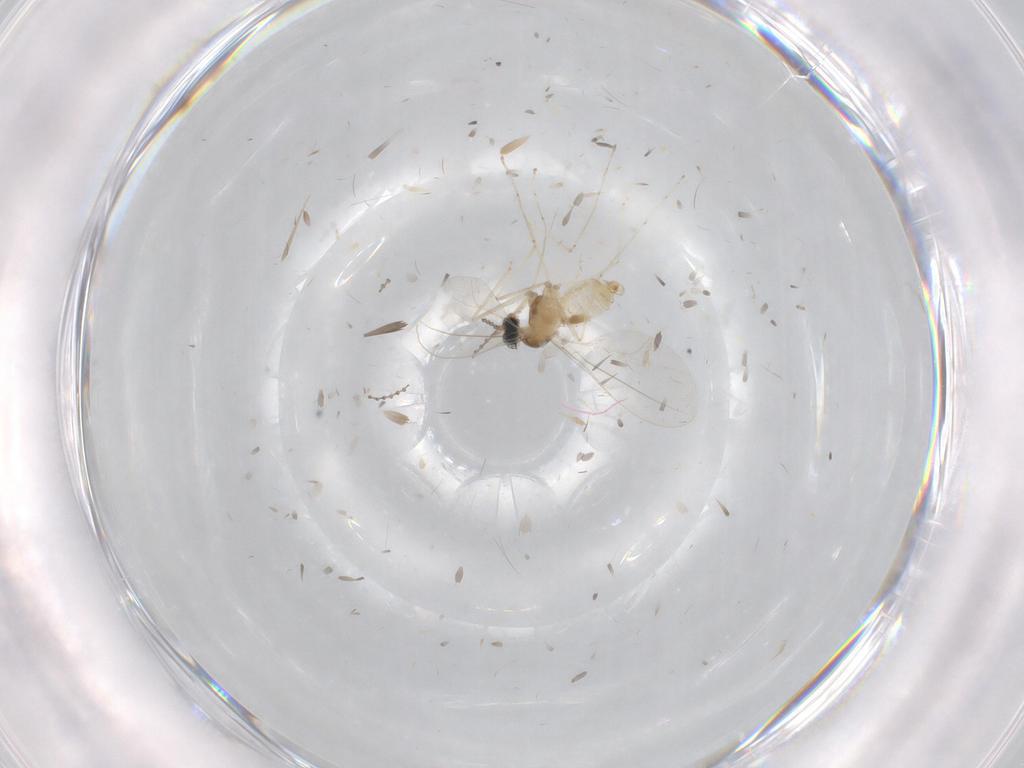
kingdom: Animalia
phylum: Arthropoda
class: Insecta
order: Diptera
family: Cecidomyiidae
